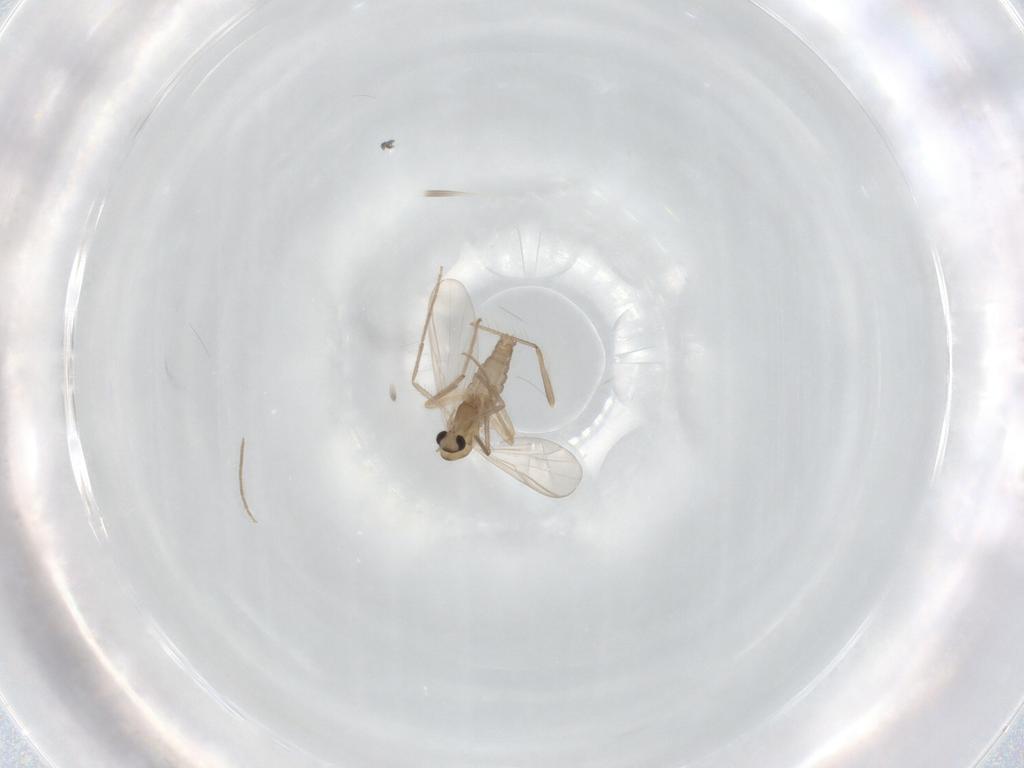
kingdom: Animalia
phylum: Arthropoda
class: Insecta
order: Diptera
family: Chironomidae
